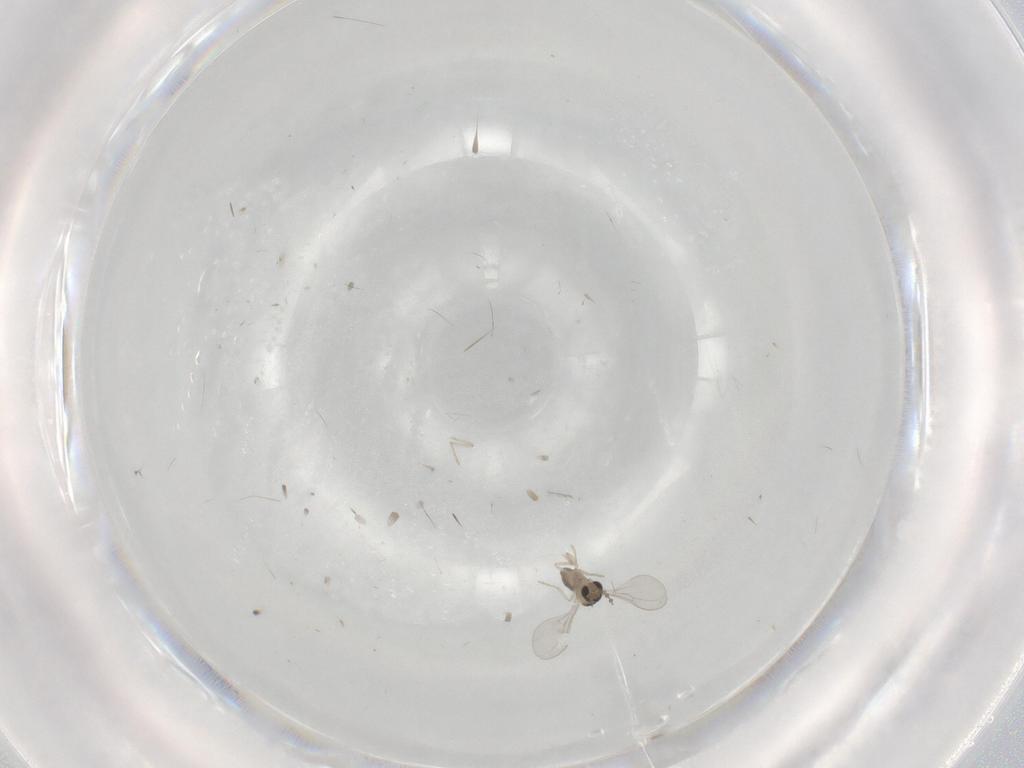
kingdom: Animalia
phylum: Arthropoda
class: Insecta
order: Diptera
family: Cecidomyiidae
